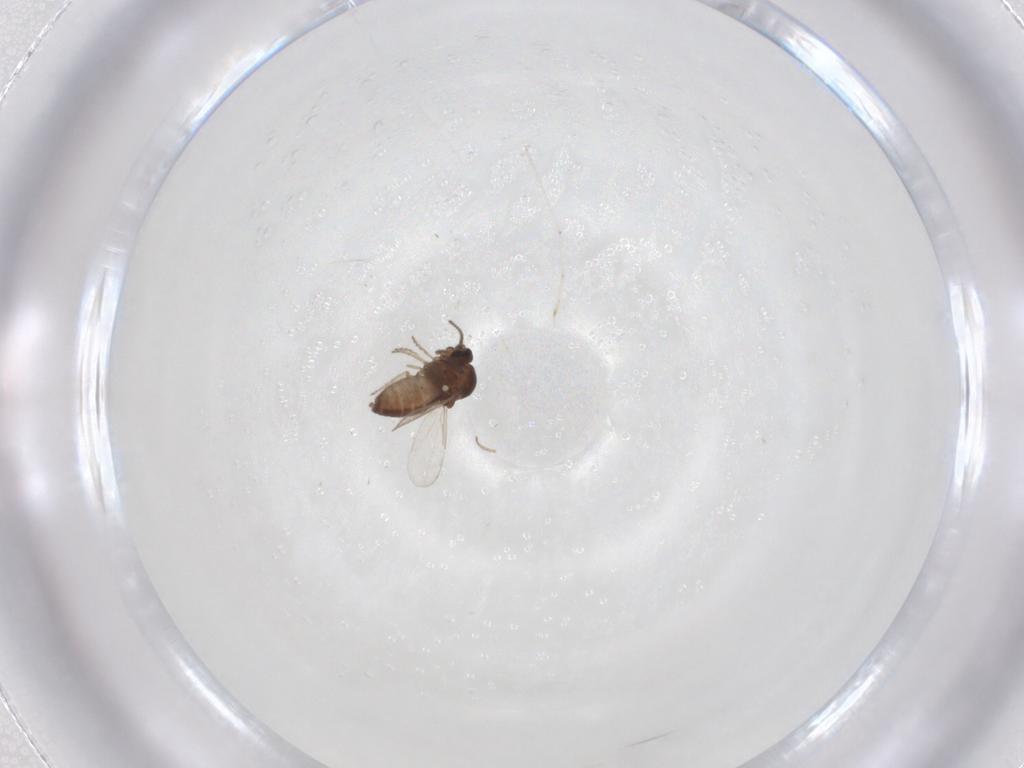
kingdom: Animalia
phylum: Arthropoda
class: Insecta
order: Diptera
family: Ceratopogonidae
